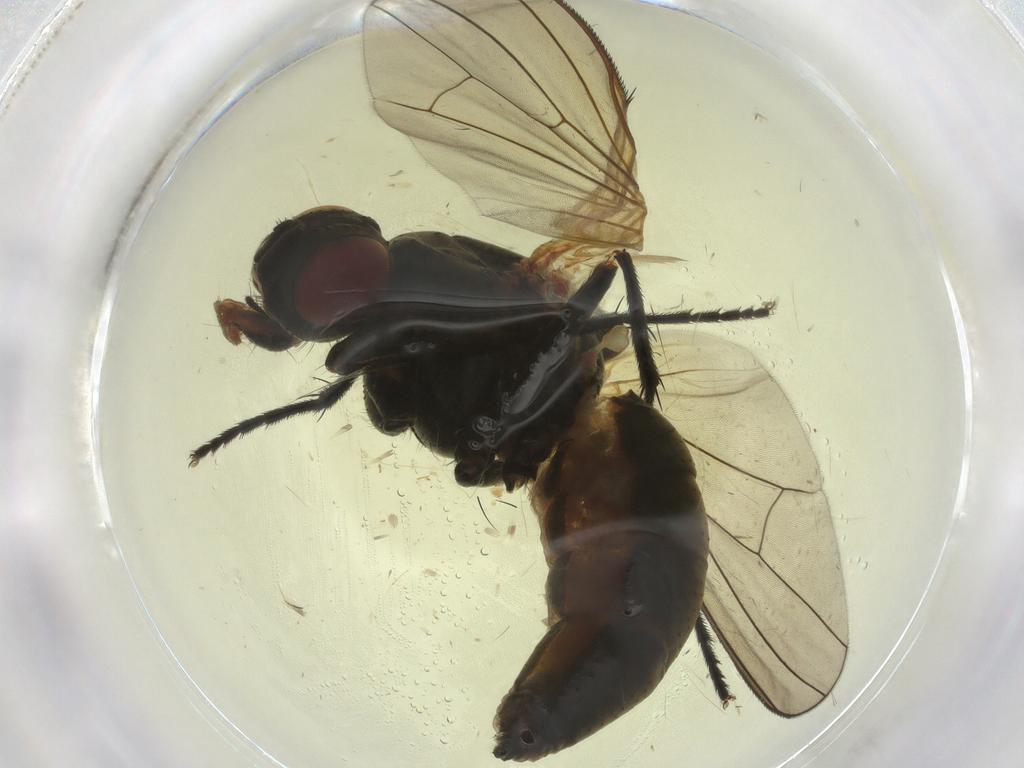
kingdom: Animalia
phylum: Arthropoda
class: Insecta
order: Diptera
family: Anthomyiidae
